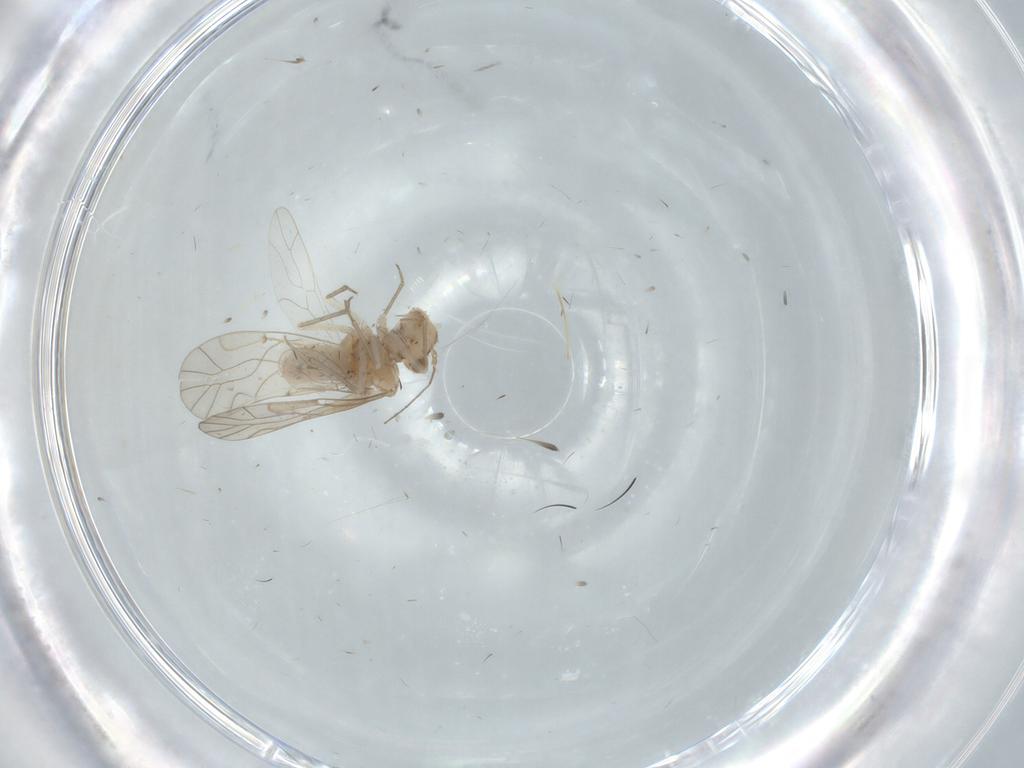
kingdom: Animalia
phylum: Arthropoda
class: Insecta
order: Psocodea
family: Lachesillidae
